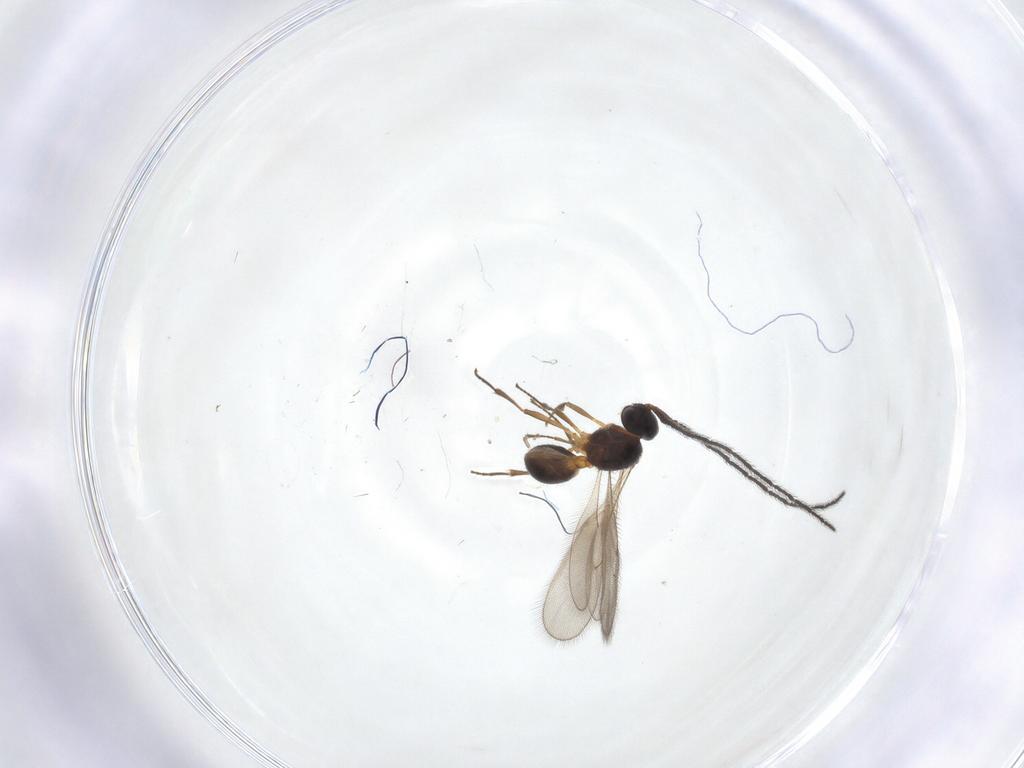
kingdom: Animalia
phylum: Arthropoda
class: Insecta
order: Hymenoptera
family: Scelionidae
